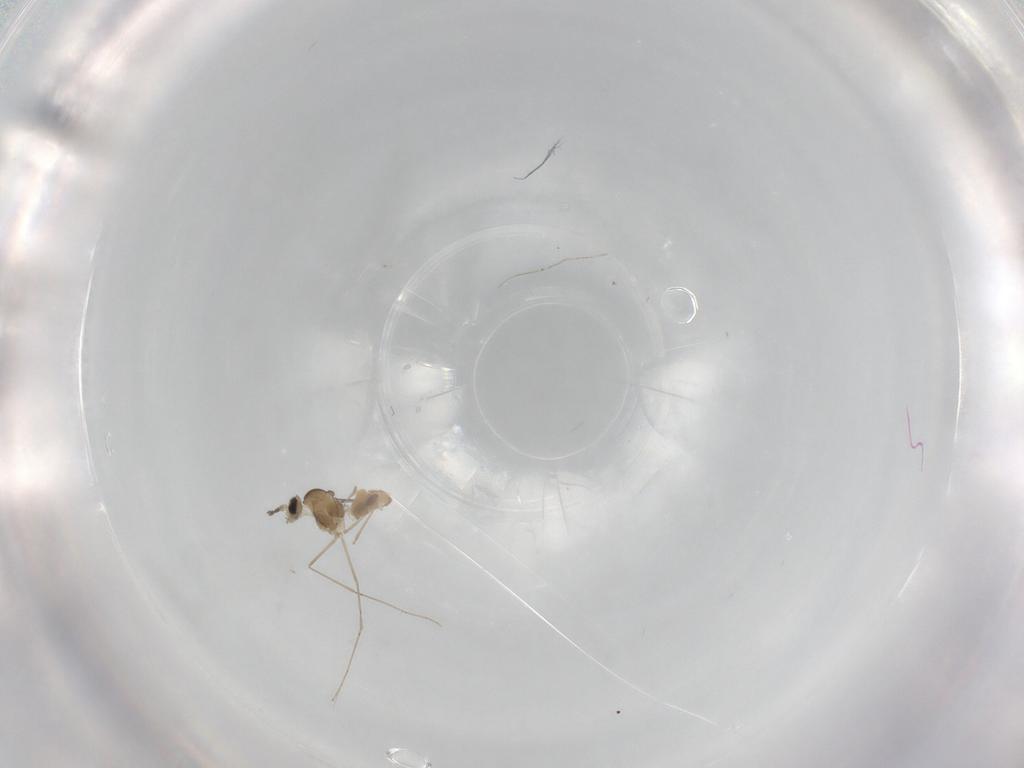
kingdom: Animalia
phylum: Arthropoda
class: Insecta
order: Diptera
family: Cecidomyiidae
